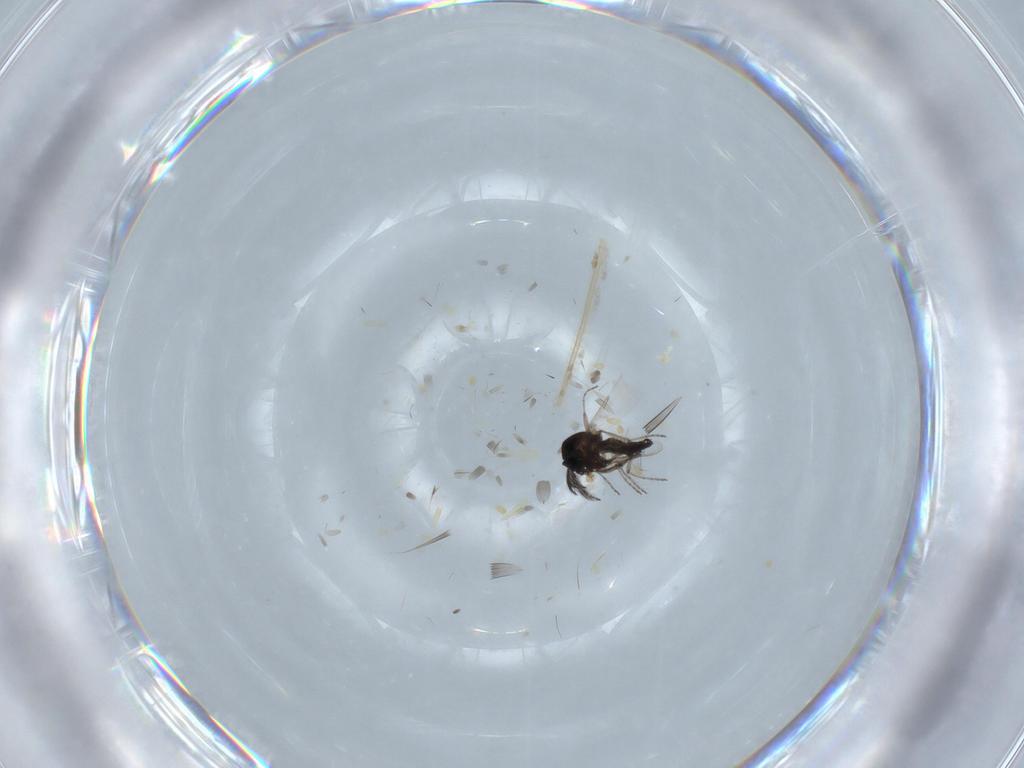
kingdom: Animalia
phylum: Arthropoda
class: Insecta
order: Diptera
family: Ceratopogonidae
